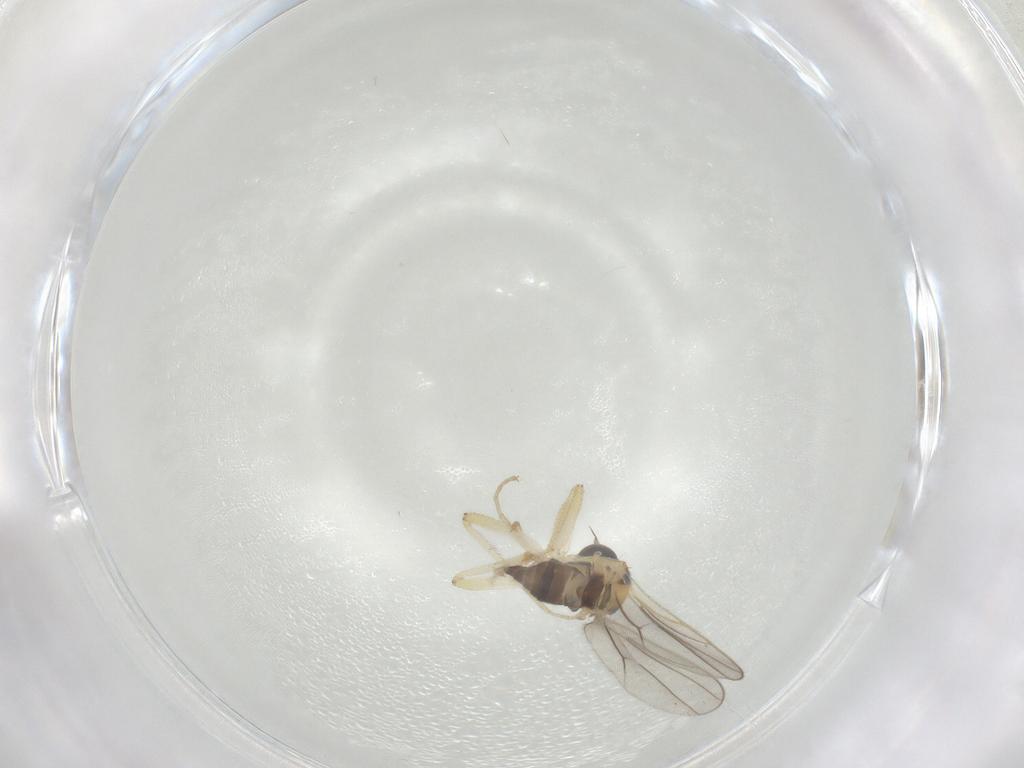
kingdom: Animalia
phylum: Arthropoda
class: Insecta
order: Diptera
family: Hybotidae
